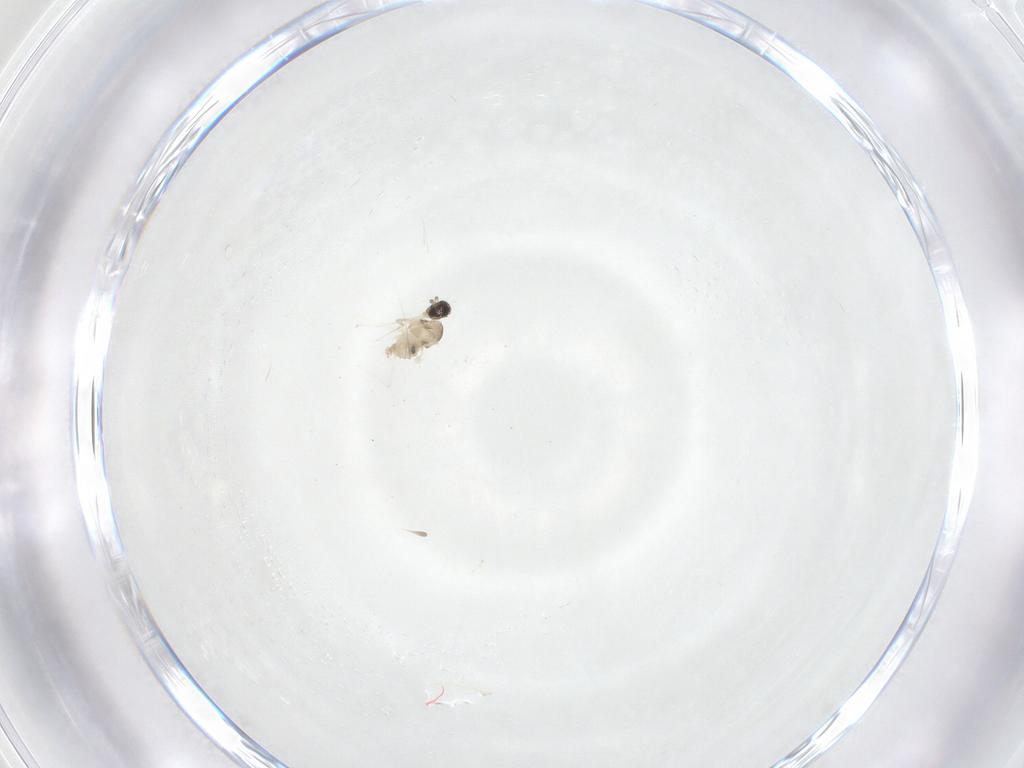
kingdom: Animalia
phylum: Arthropoda
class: Insecta
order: Diptera
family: Cecidomyiidae
